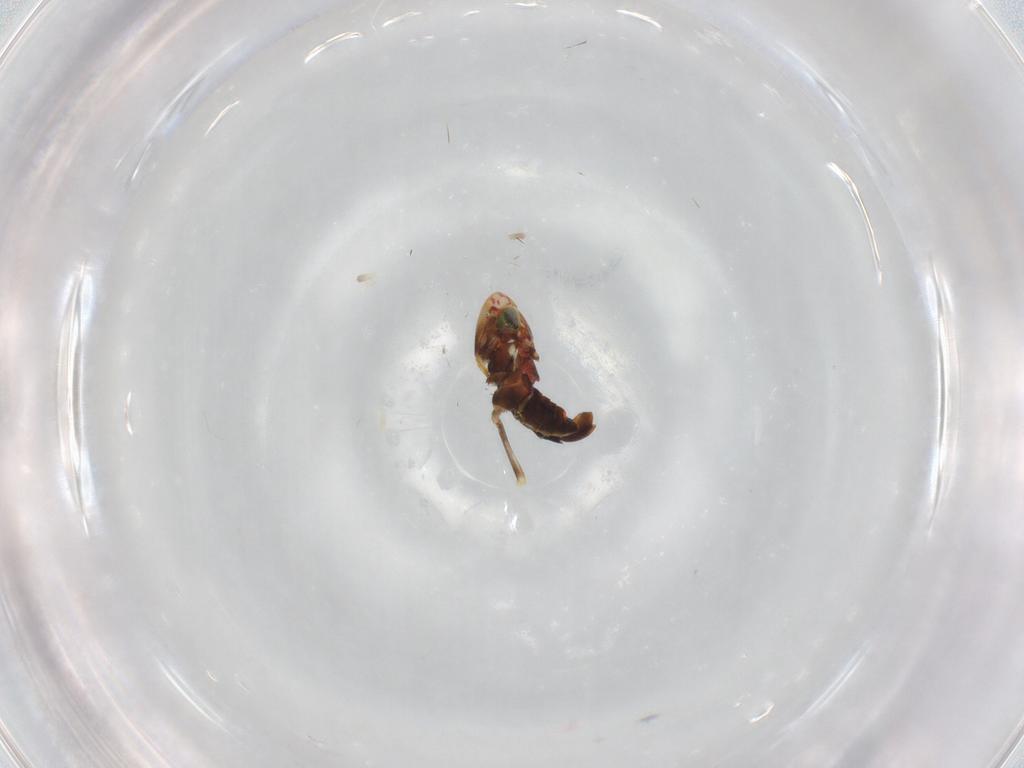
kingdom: Animalia
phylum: Arthropoda
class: Insecta
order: Hemiptera
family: Cicadellidae
